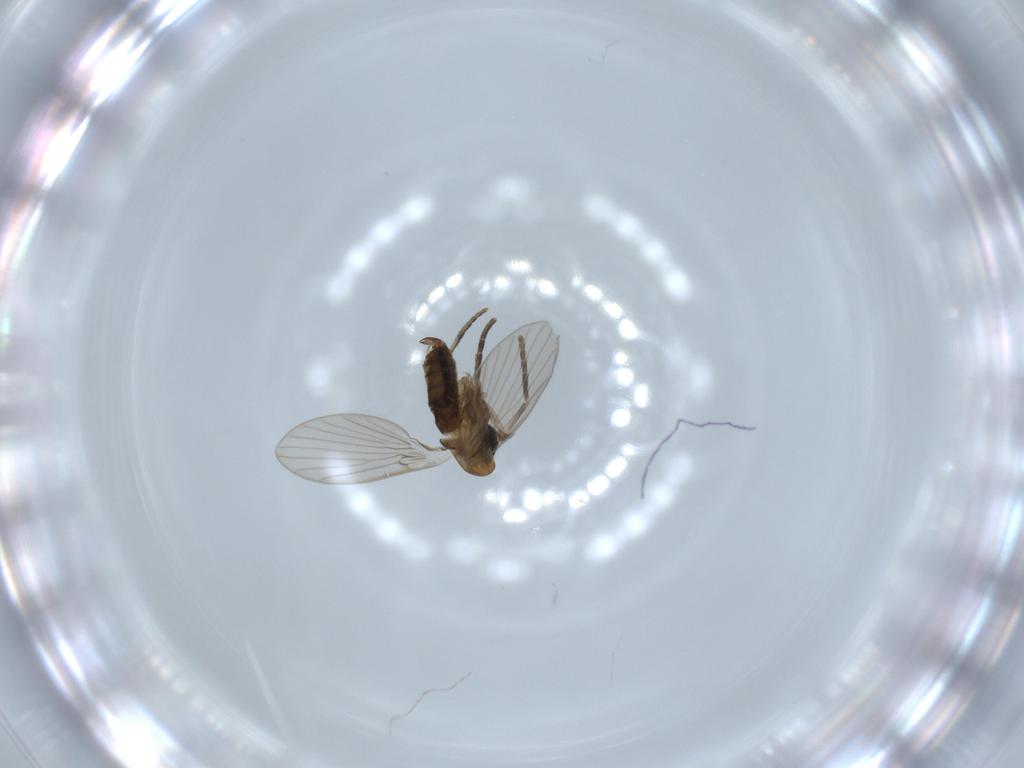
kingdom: Animalia
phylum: Arthropoda
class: Insecta
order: Diptera
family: Psychodidae
